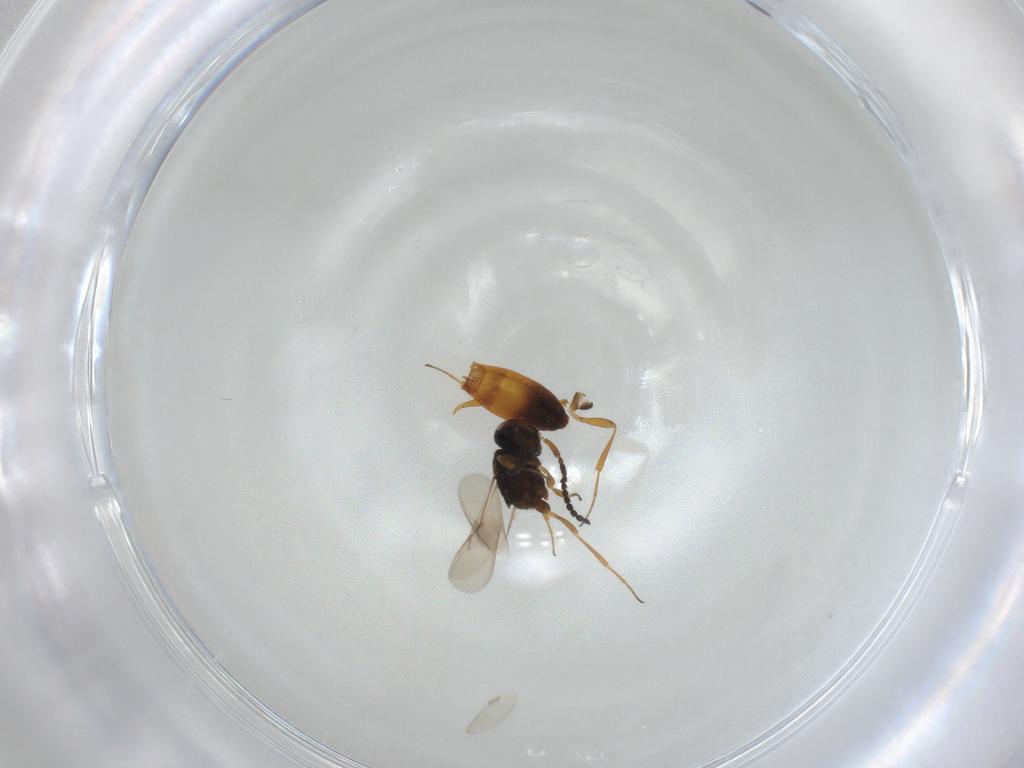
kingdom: Animalia
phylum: Arthropoda
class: Insecta
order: Hymenoptera
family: Scelionidae
